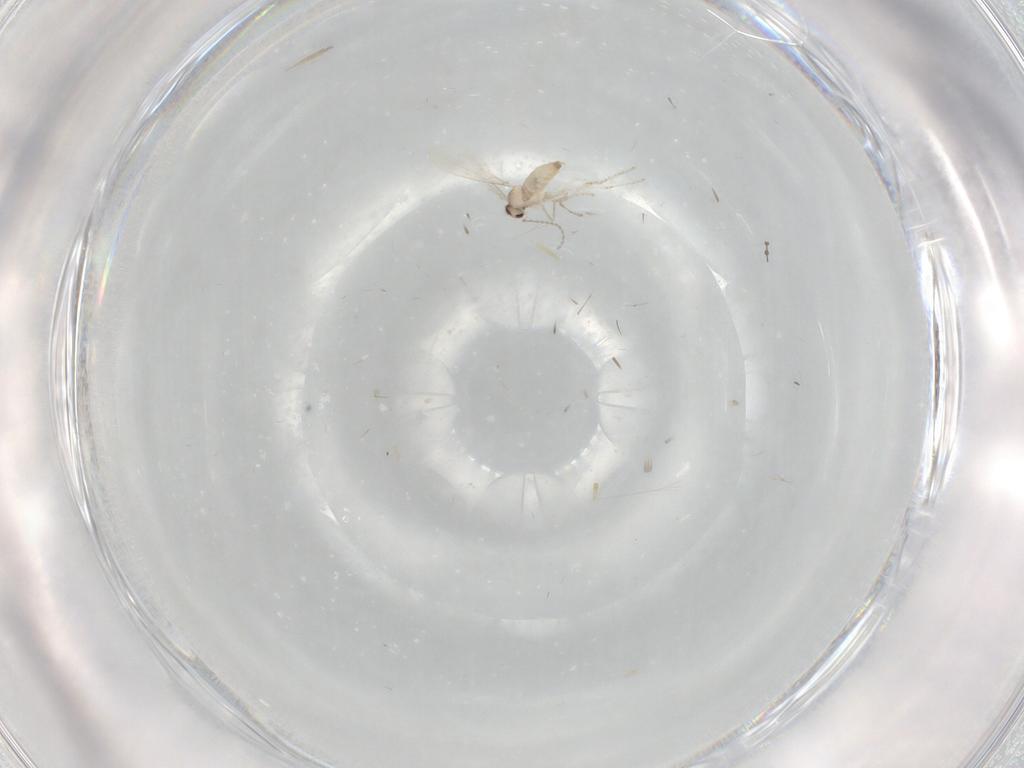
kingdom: Animalia
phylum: Arthropoda
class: Insecta
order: Diptera
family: Cecidomyiidae
